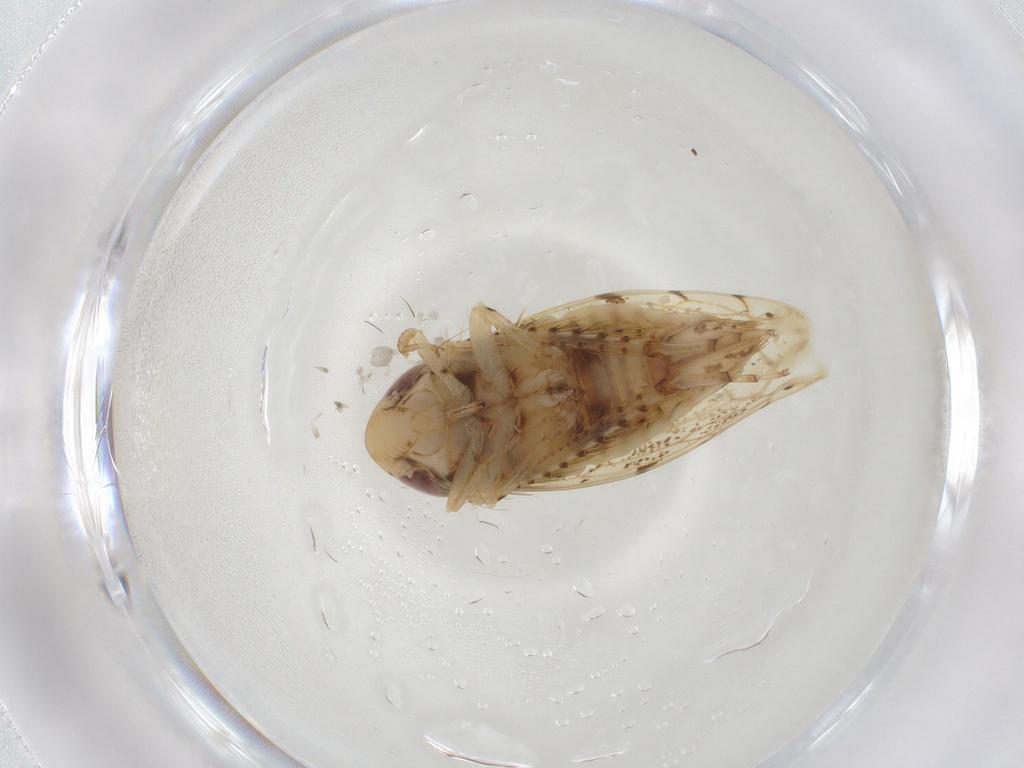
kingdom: Animalia
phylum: Arthropoda
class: Insecta
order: Hemiptera
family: Cicadellidae
